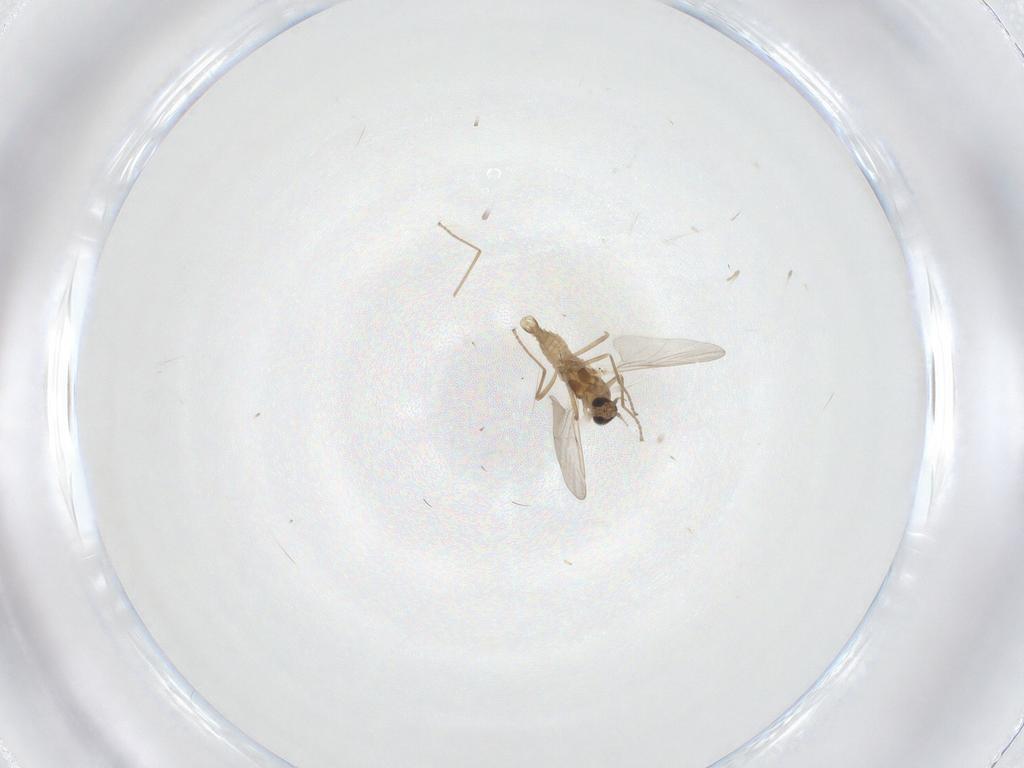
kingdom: Animalia
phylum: Arthropoda
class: Insecta
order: Diptera
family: Cecidomyiidae
